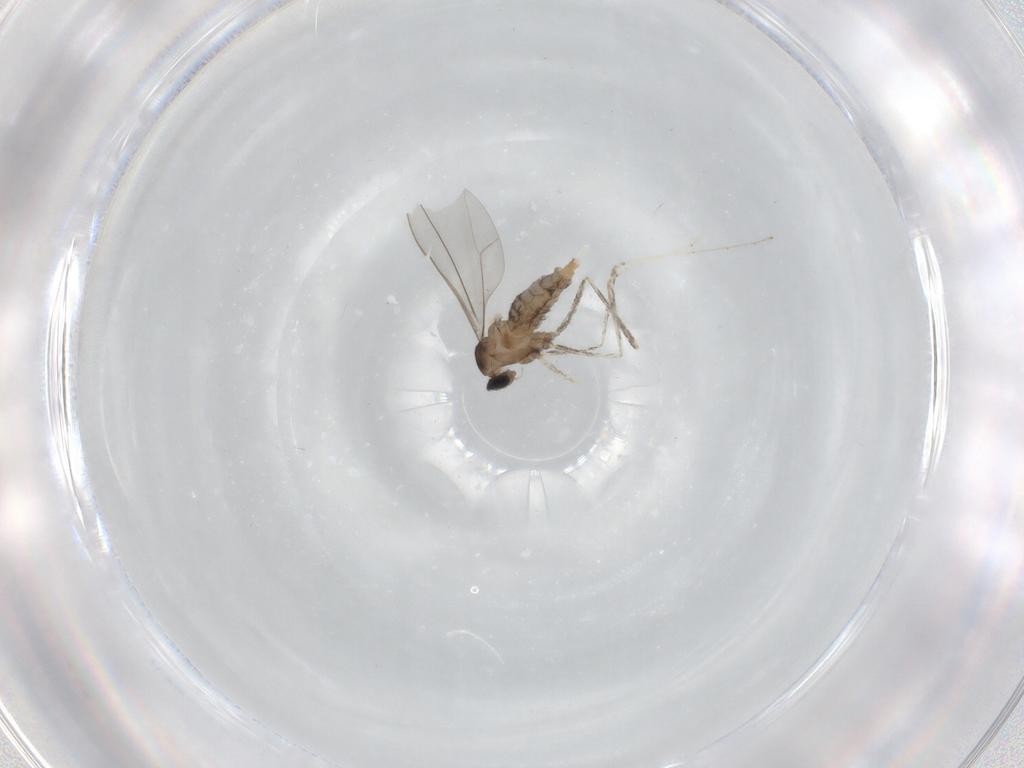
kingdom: Animalia
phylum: Arthropoda
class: Insecta
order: Diptera
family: Cecidomyiidae
